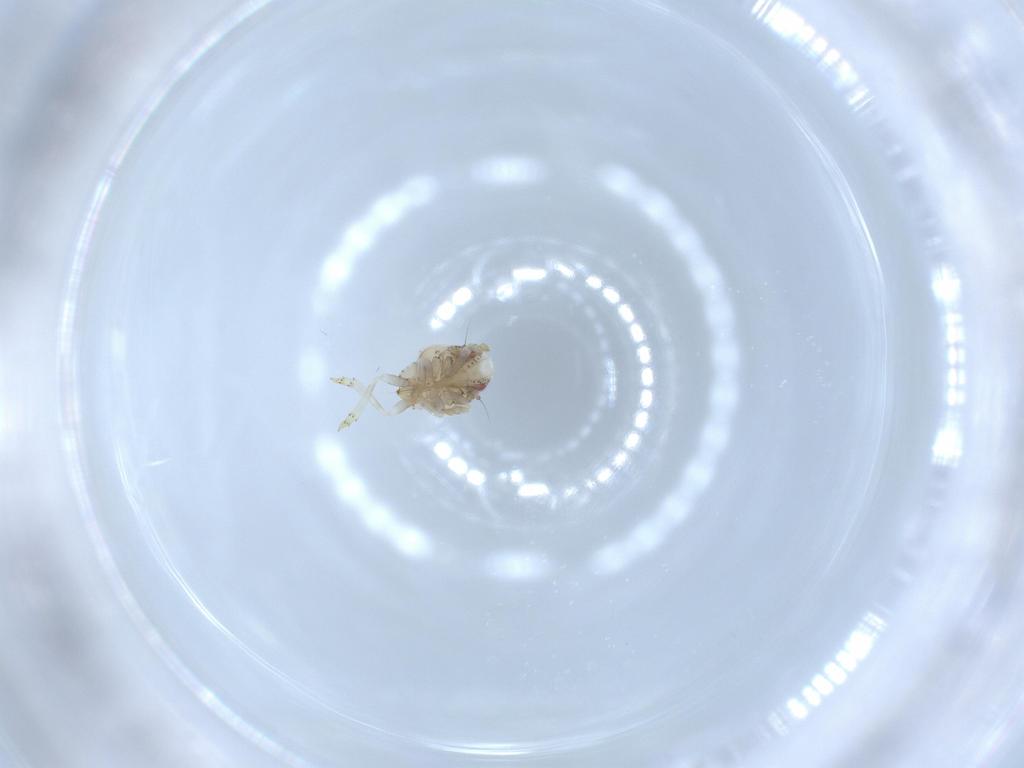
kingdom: Animalia
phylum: Arthropoda
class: Insecta
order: Hemiptera
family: Acanaloniidae
